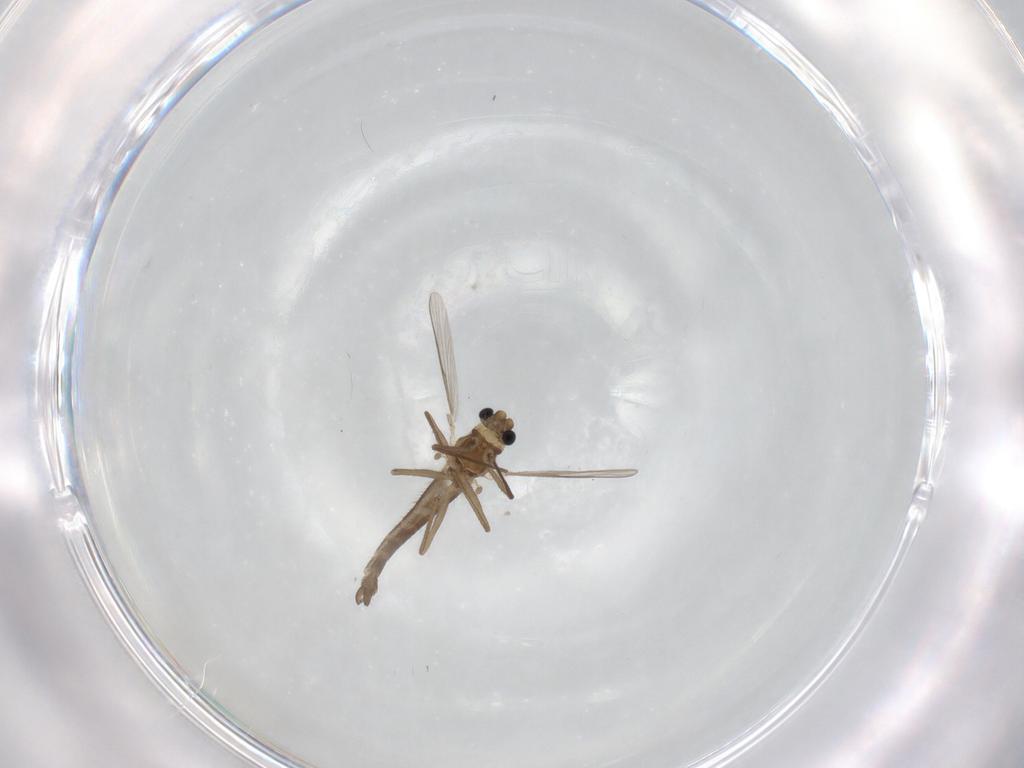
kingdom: Animalia
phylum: Arthropoda
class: Insecta
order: Diptera
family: Chironomidae
